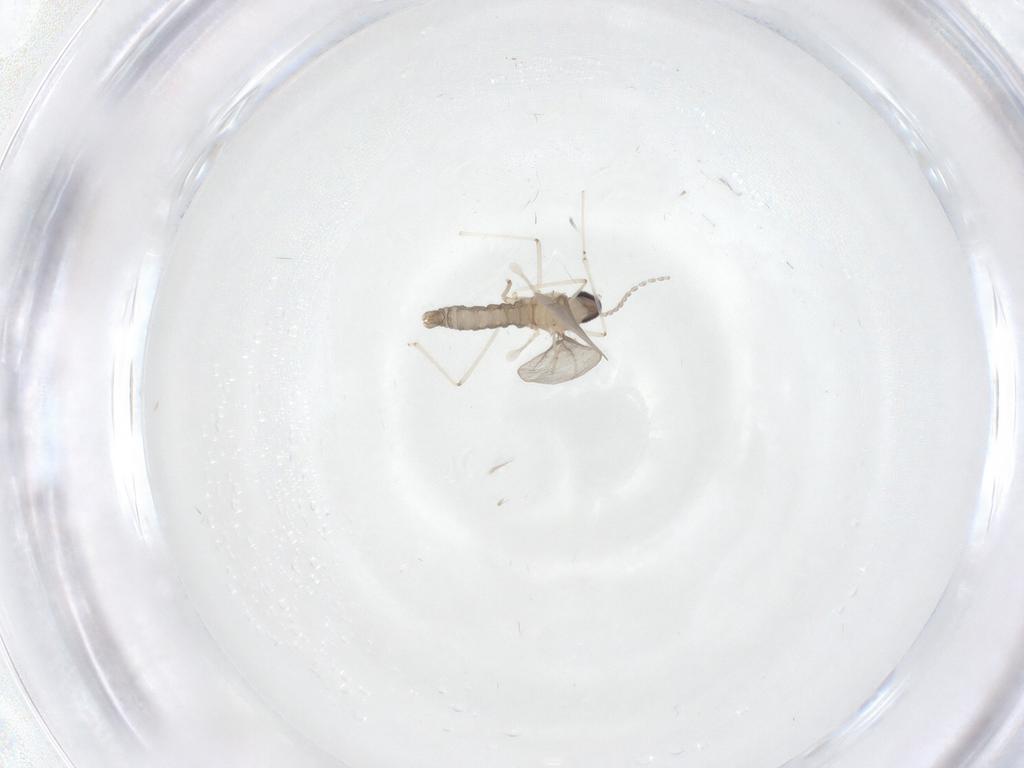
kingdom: Animalia
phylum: Arthropoda
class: Insecta
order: Diptera
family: Cecidomyiidae
